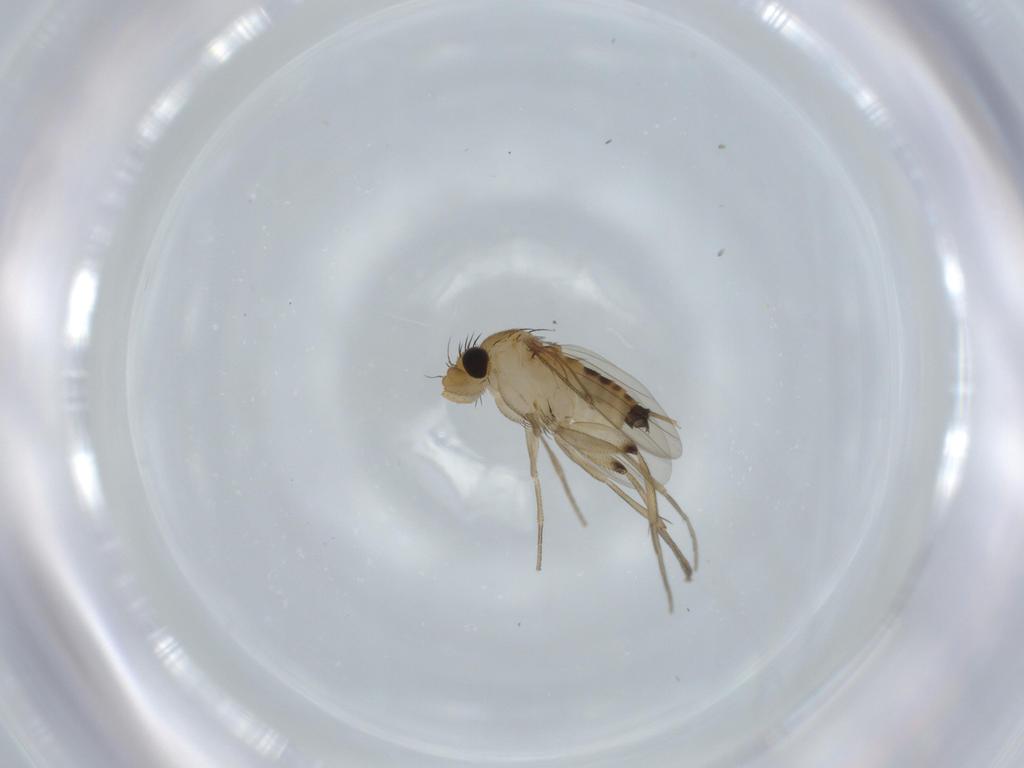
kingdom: Animalia
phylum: Arthropoda
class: Insecta
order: Diptera
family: Phoridae
